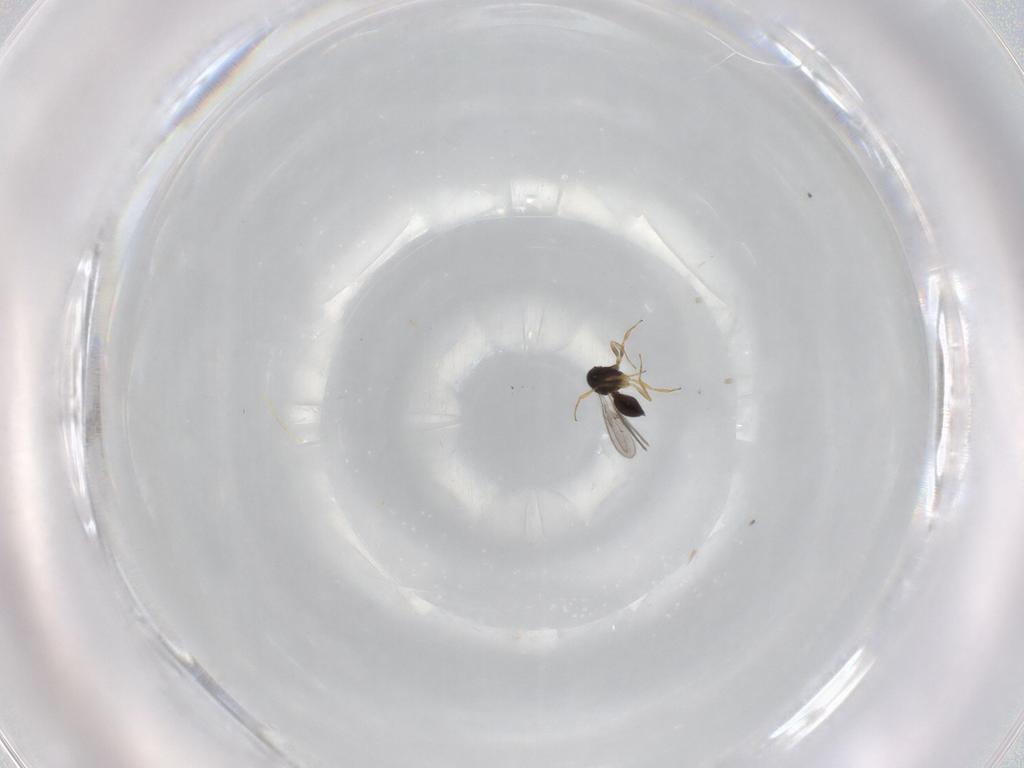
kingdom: Animalia
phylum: Arthropoda
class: Insecta
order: Hymenoptera
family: Scelionidae
